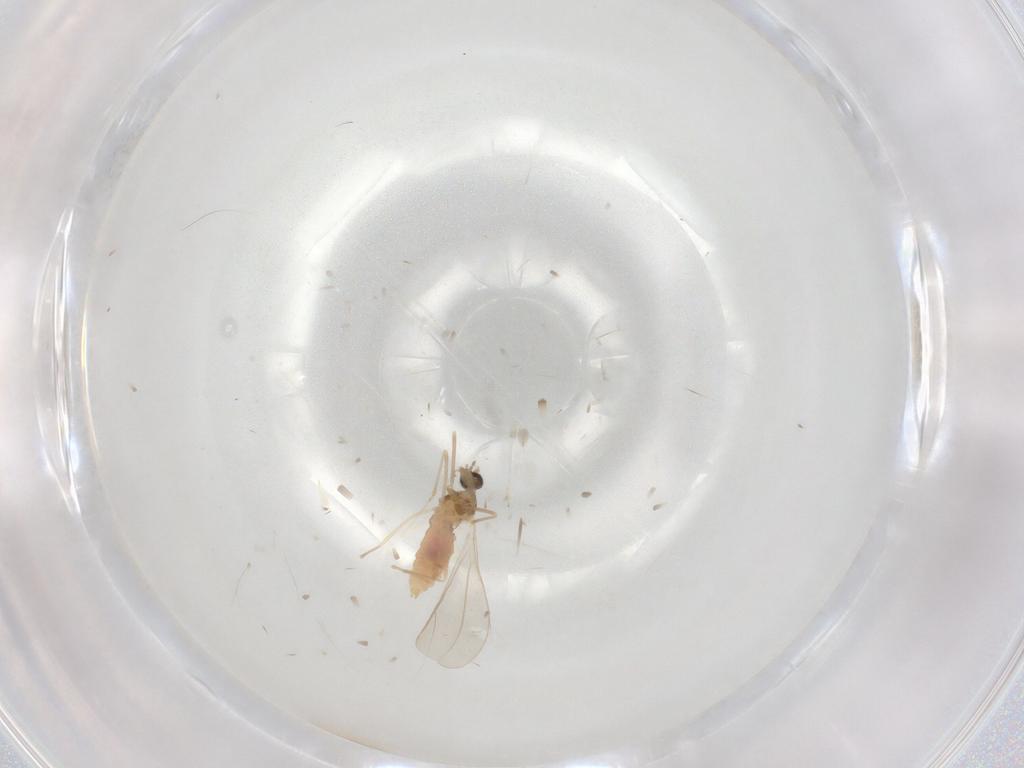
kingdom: Animalia
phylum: Arthropoda
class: Insecta
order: Diptera
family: Cecidomyiidae
